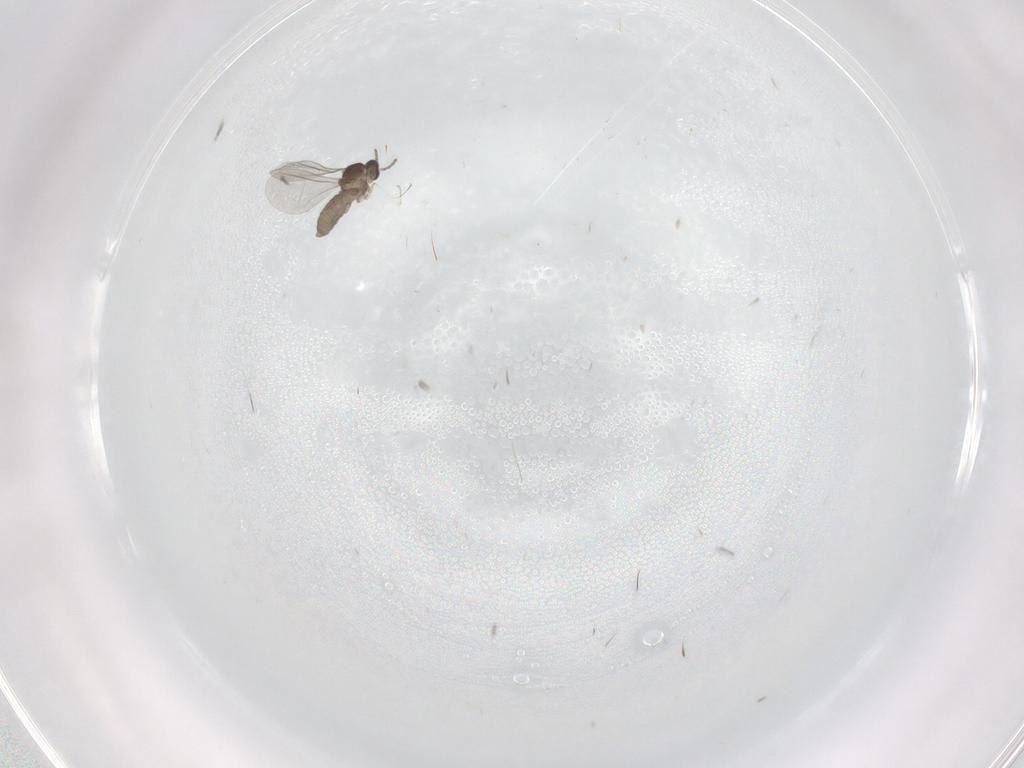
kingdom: Animalia
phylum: Arthropoda
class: Insecta
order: Diptera
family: Cecidomyiidae
